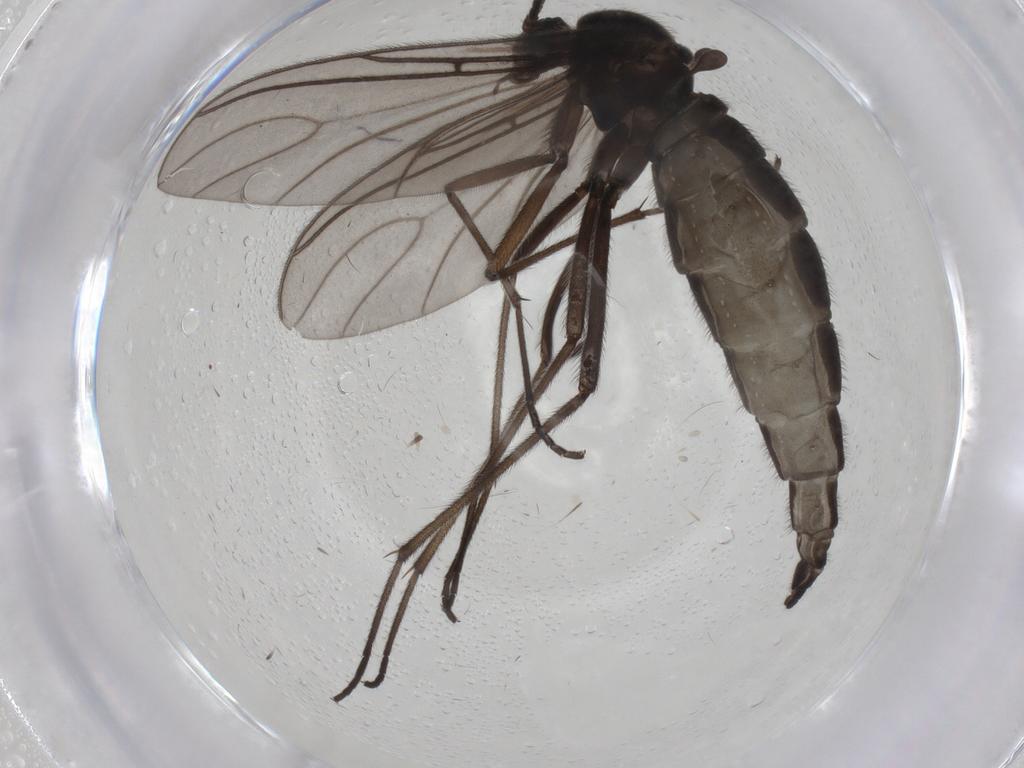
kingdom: Animalia
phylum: Arthropoda
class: Insecta
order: Diptera
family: Sciaridae
